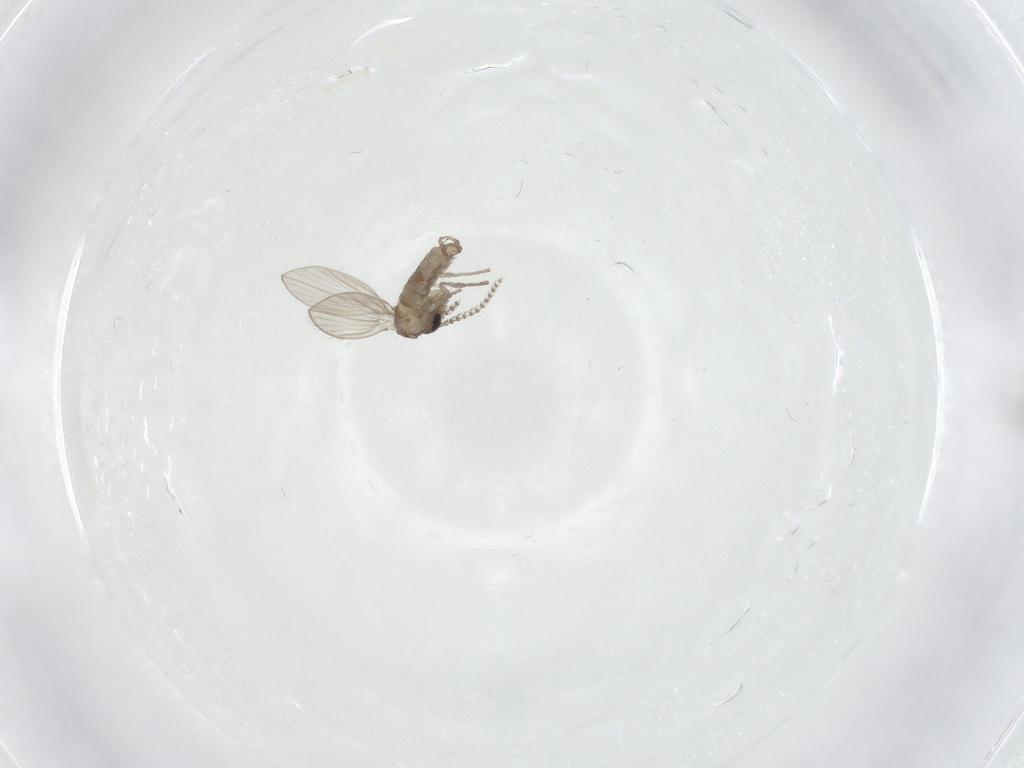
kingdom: Animalia
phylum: Arthropoda
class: Insecta
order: Diptera
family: Psychodidae
